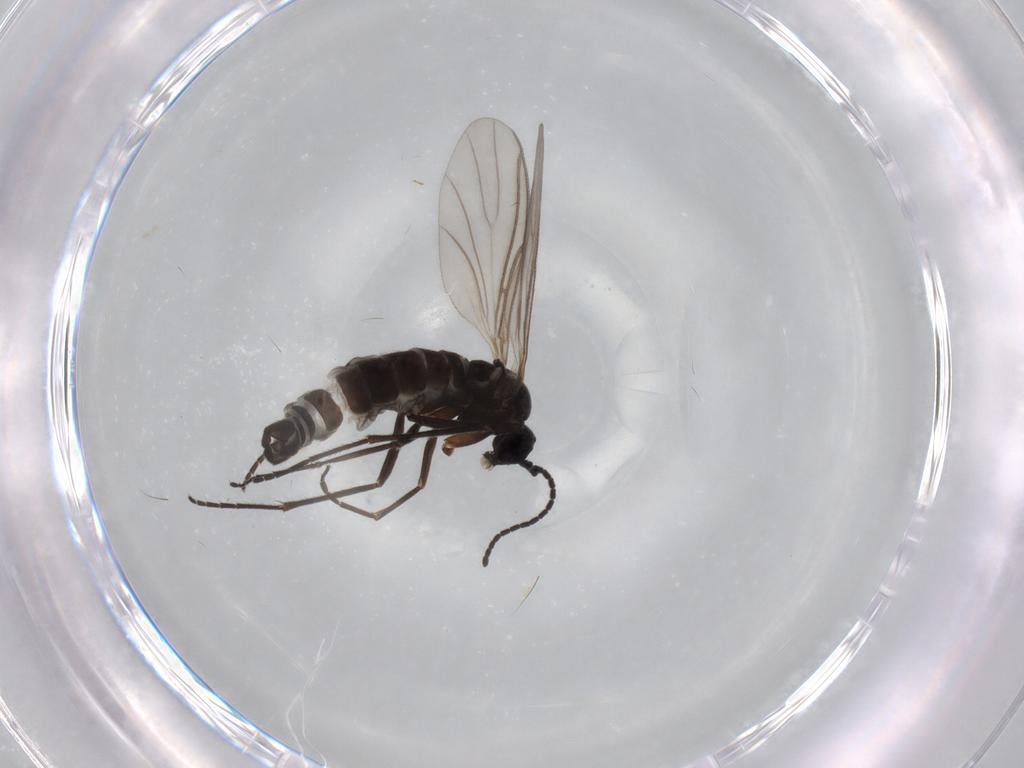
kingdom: Animalia
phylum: Arthropoda
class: Insecta
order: Diptera
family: Sciaridae
